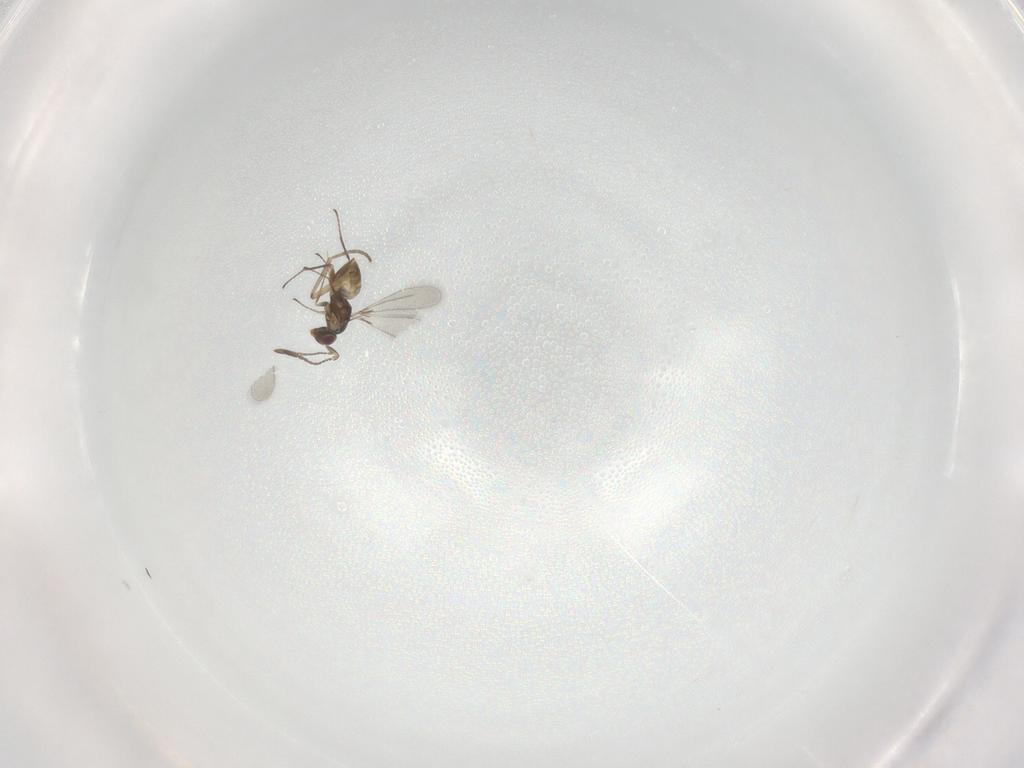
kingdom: Animalia
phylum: Arthropoda
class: Insecta
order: Hymenoptera
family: Mymaridae
